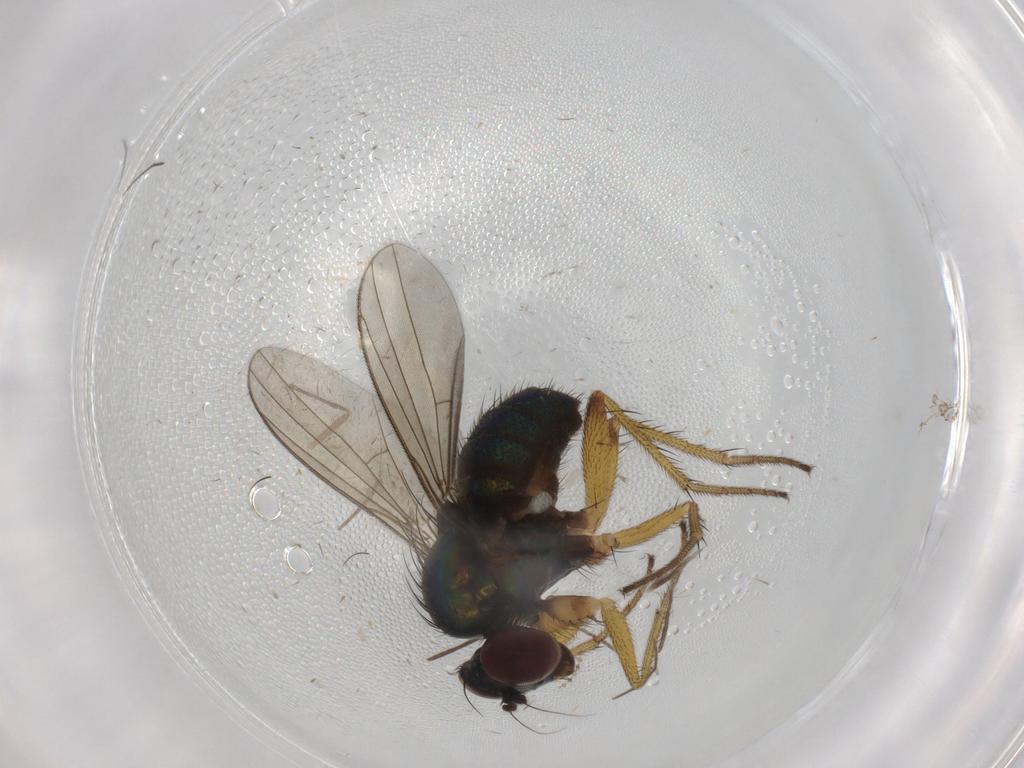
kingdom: Animalia
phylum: Arthropoda
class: Insecta
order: Diptera
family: Dolichopodidae
